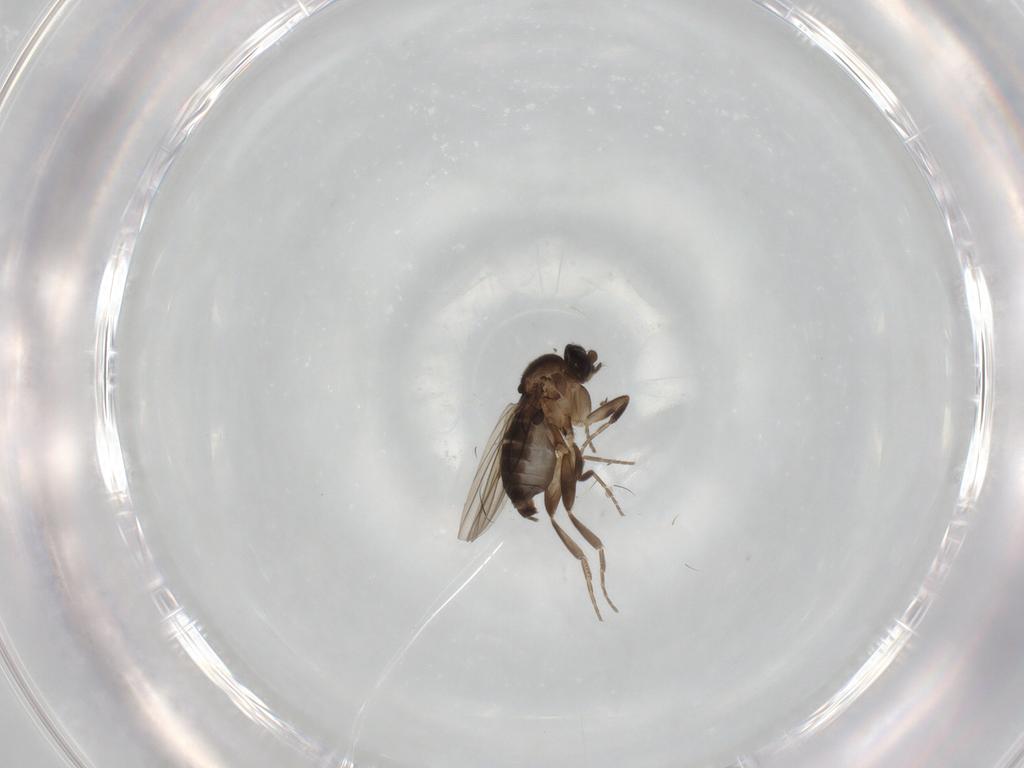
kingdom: Animalia
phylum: Arthropoda
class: Insecta
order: Diptera
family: Phoridae
